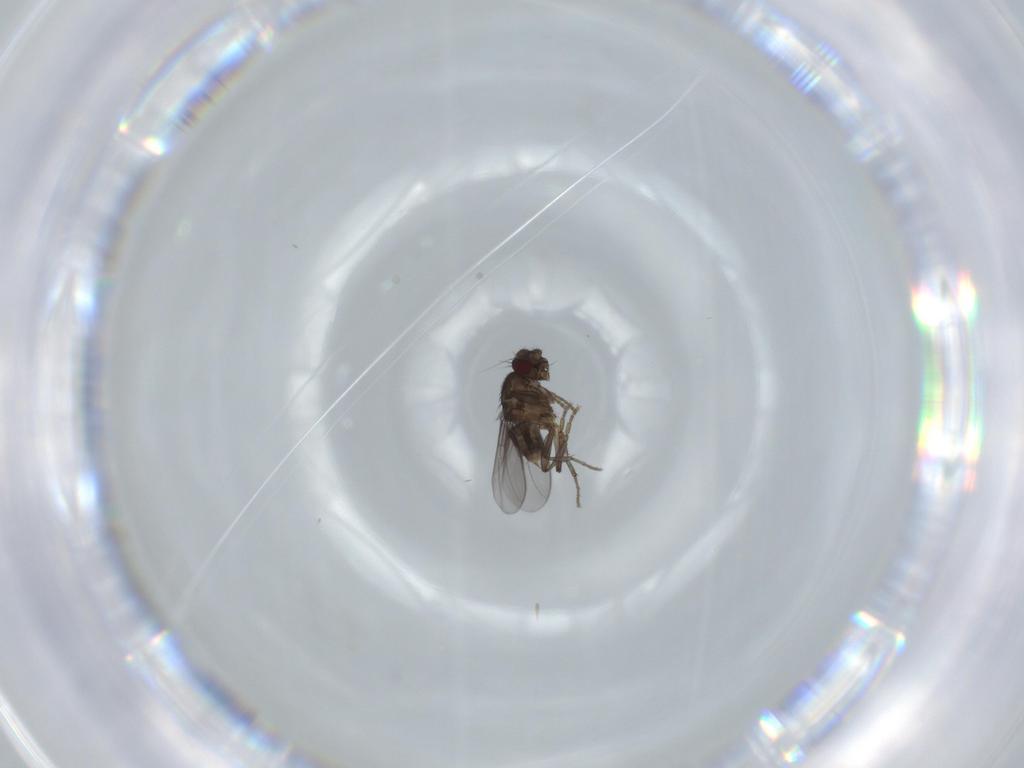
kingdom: Animalia
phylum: Arthropoda
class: Insecta
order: Diptera
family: Sphaeroceridae
